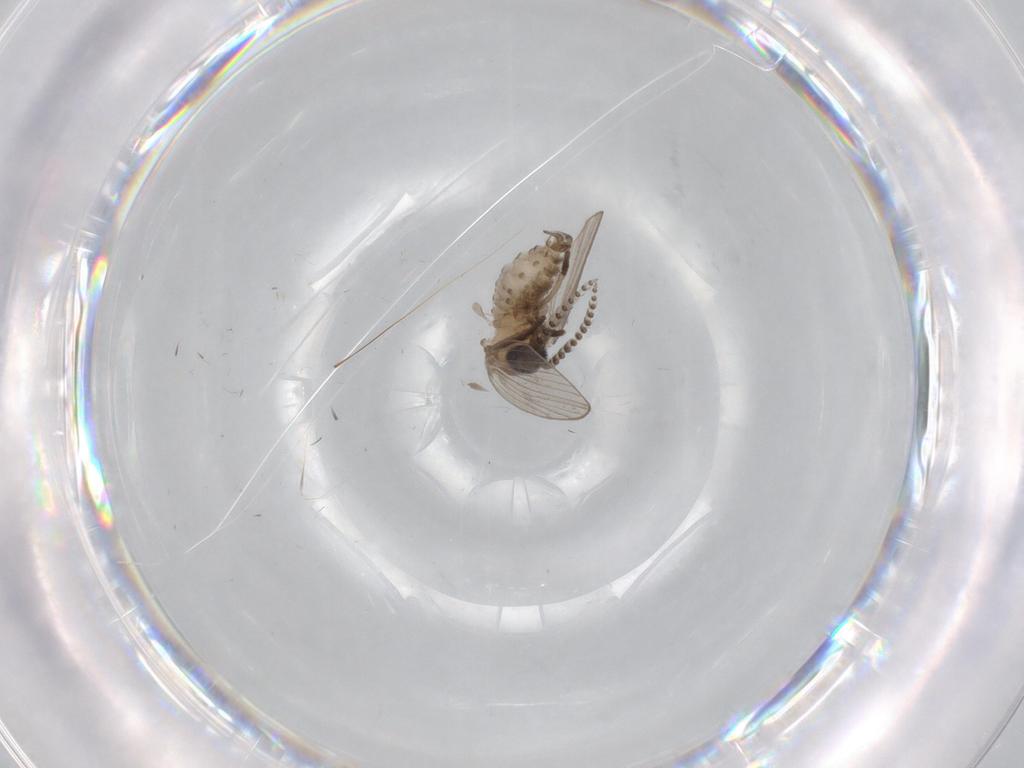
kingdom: Animalia
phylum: Arthropoda
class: Insecta
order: Diptera
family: Psychodidae
